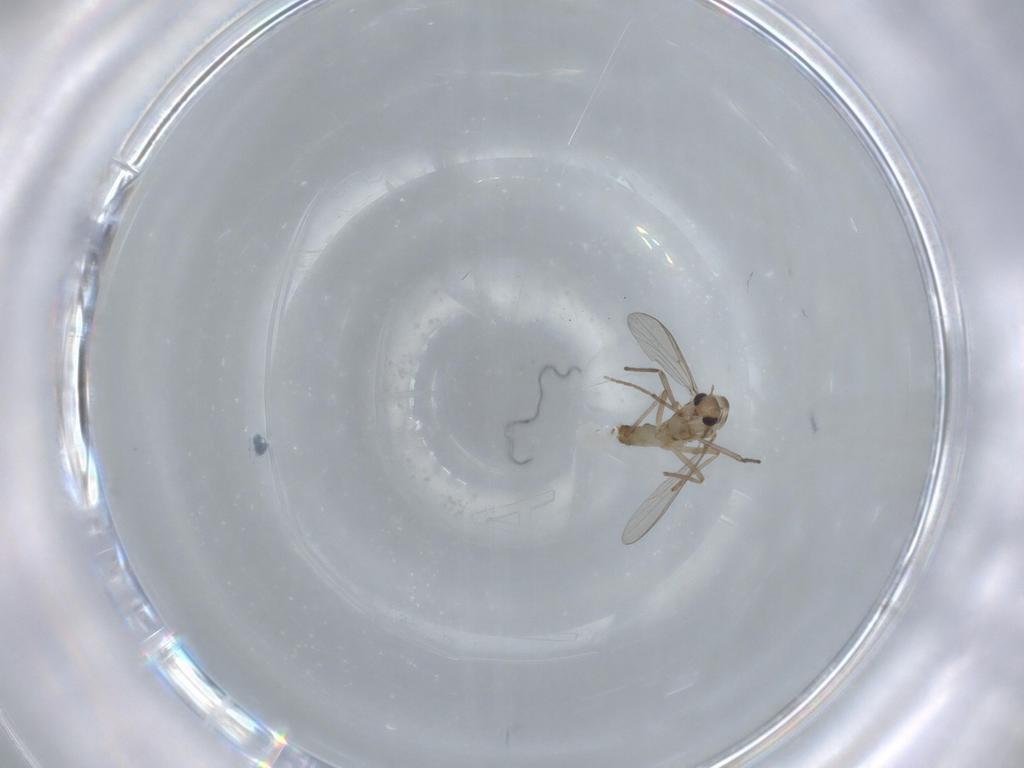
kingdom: Animalia
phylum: Arthropoda
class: Insecta
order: Diptera
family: Chironomidae
